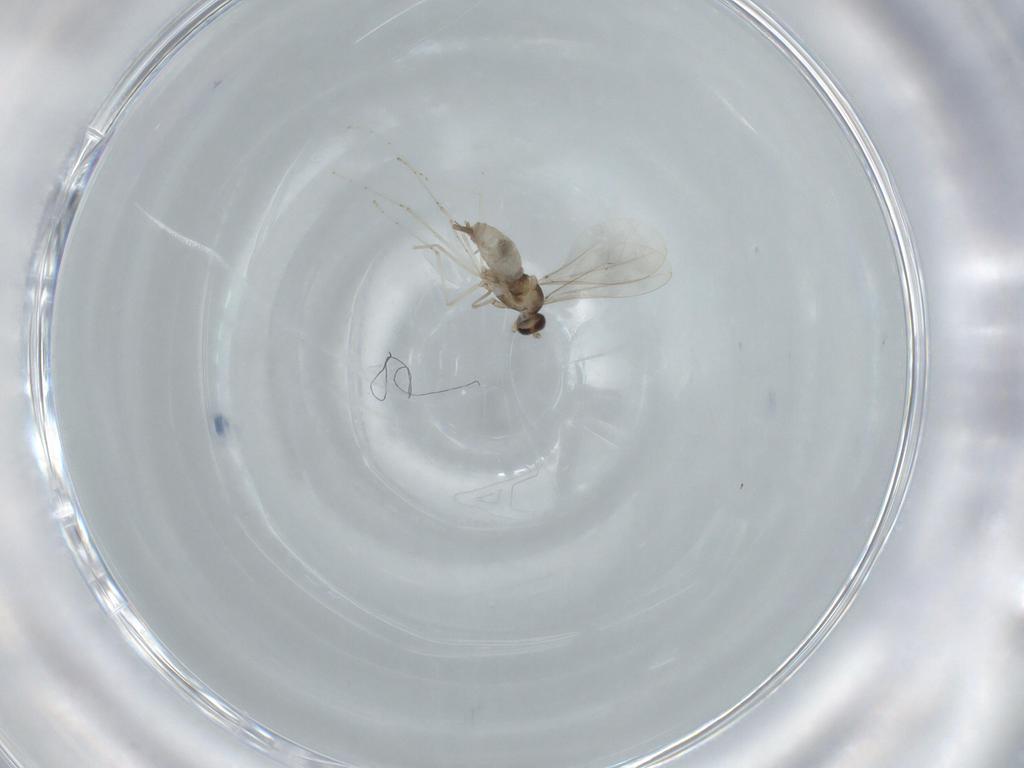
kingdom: Animalia
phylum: Arthropoda
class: Insecta
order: Diptera
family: Cecidomyiidae
